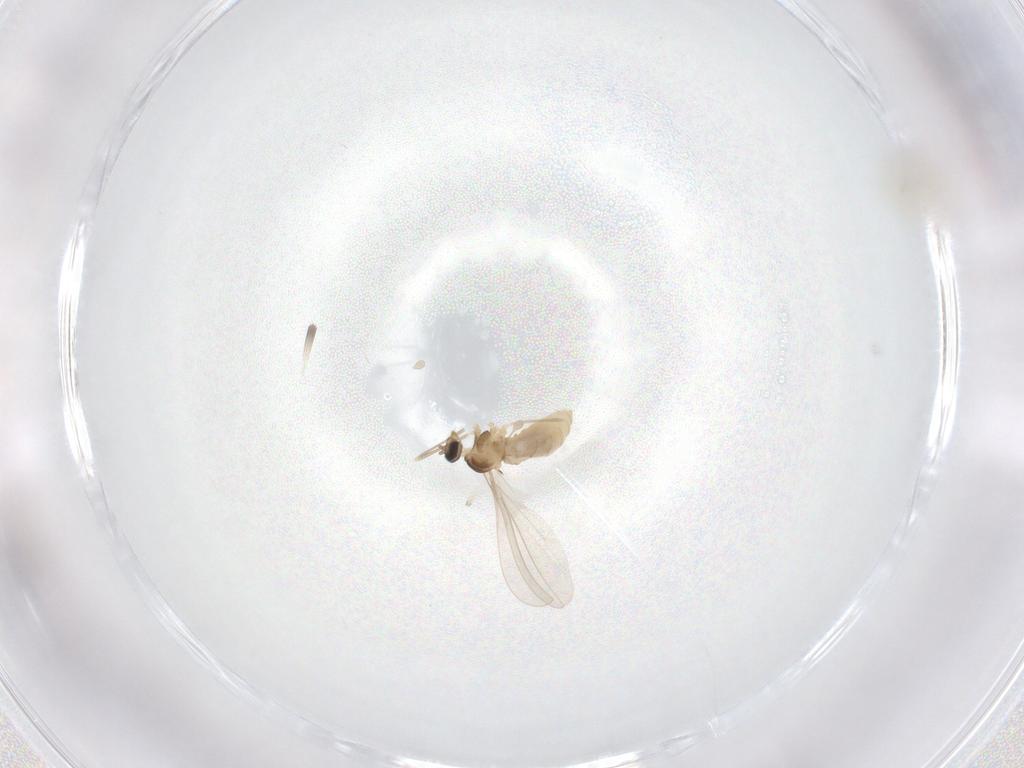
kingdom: Animalia
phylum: Arthropoda
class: Insecta
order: Diptera
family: Cecidomyiidae
